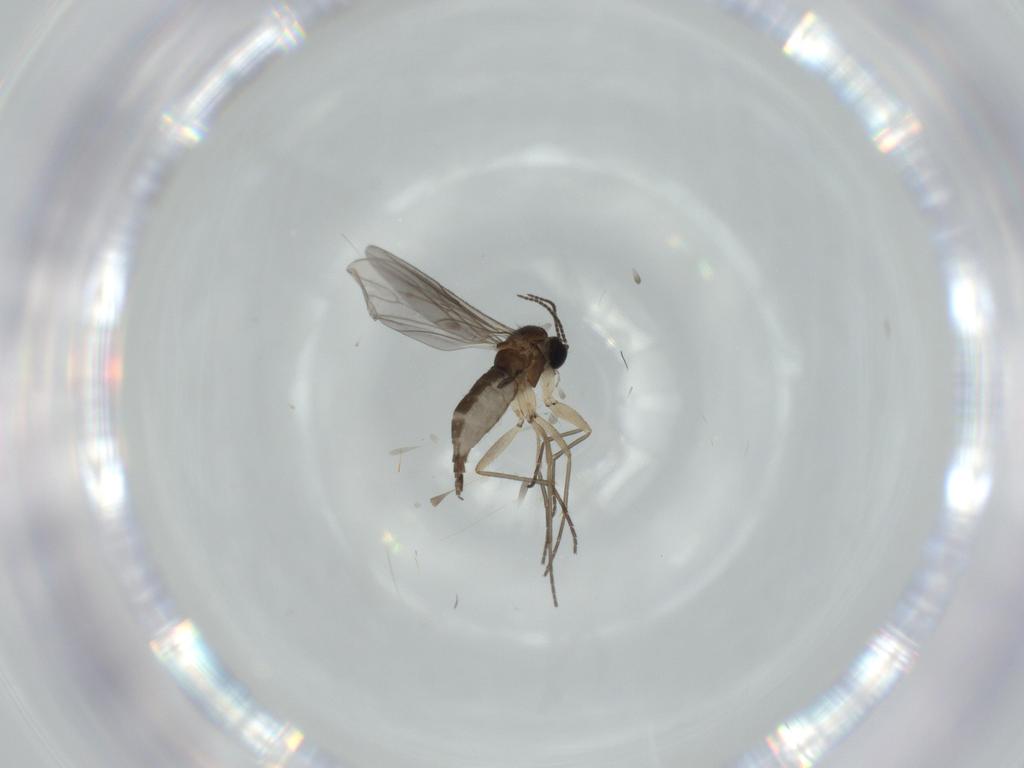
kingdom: Animalia
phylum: Arthropoda
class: Insecta
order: Diptera
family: Sciaridae
